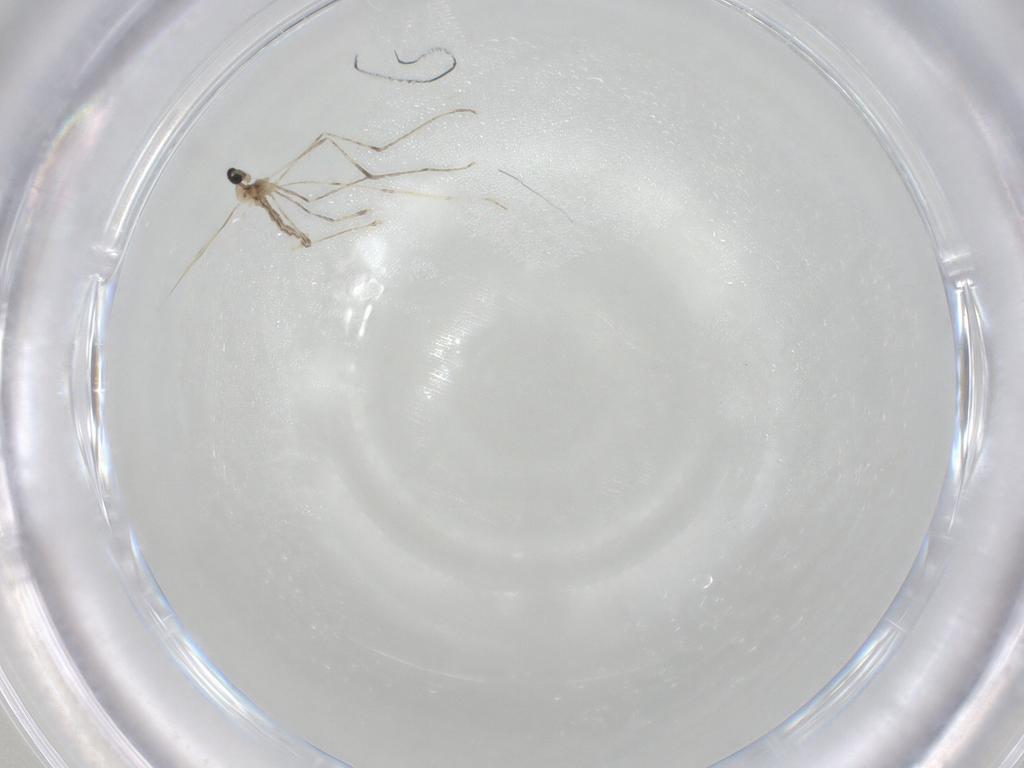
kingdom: Animalia
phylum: Arthropoda
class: Insecta
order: Diptera
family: Cecidomyiidae
